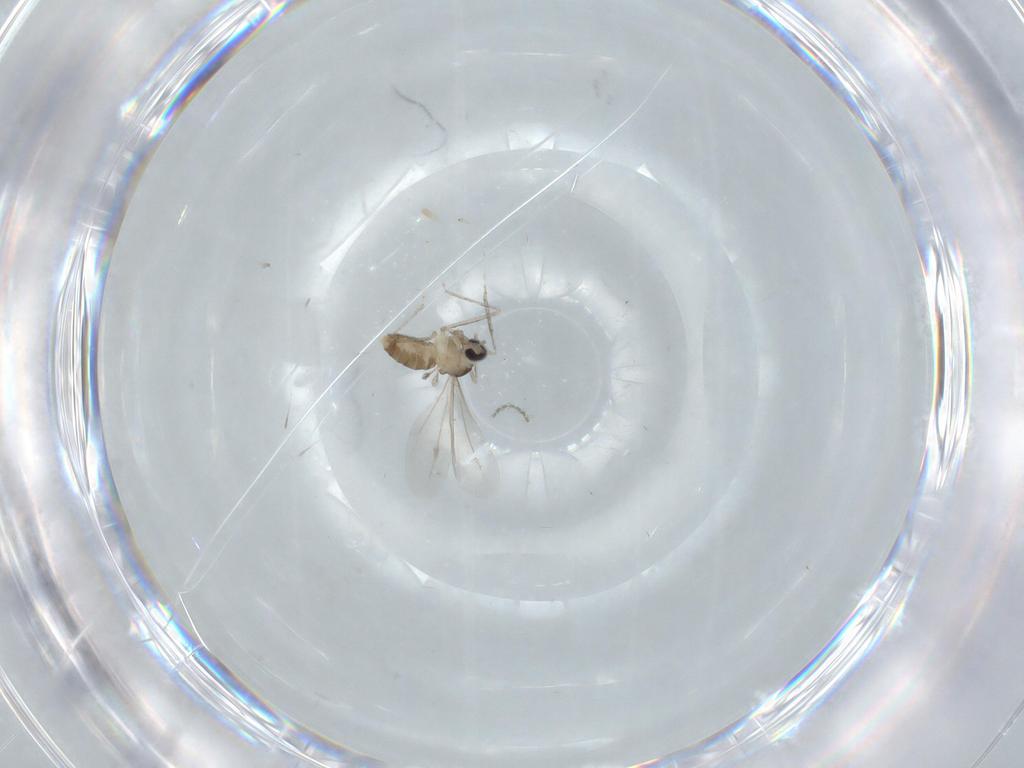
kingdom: Animalia
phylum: Arthropoda
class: Insecta
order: Diptera
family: Cecidomyiidae
